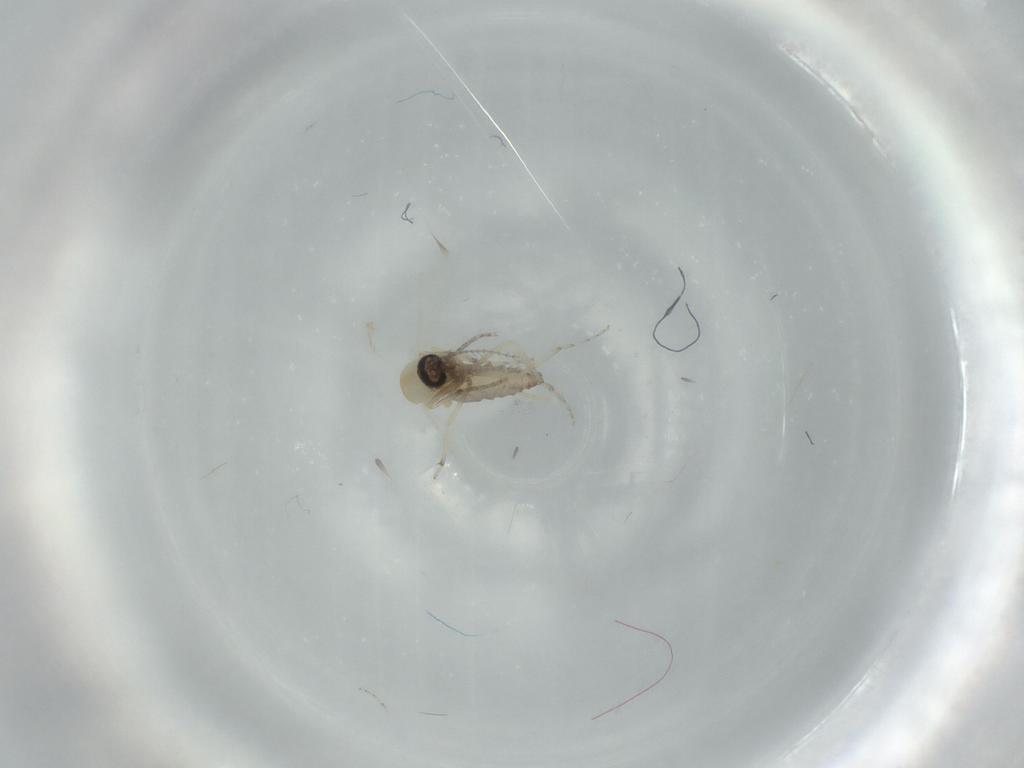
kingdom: Animalia
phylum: Arthropoda
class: Insecta
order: Diptera
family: Ceratopogonidae
